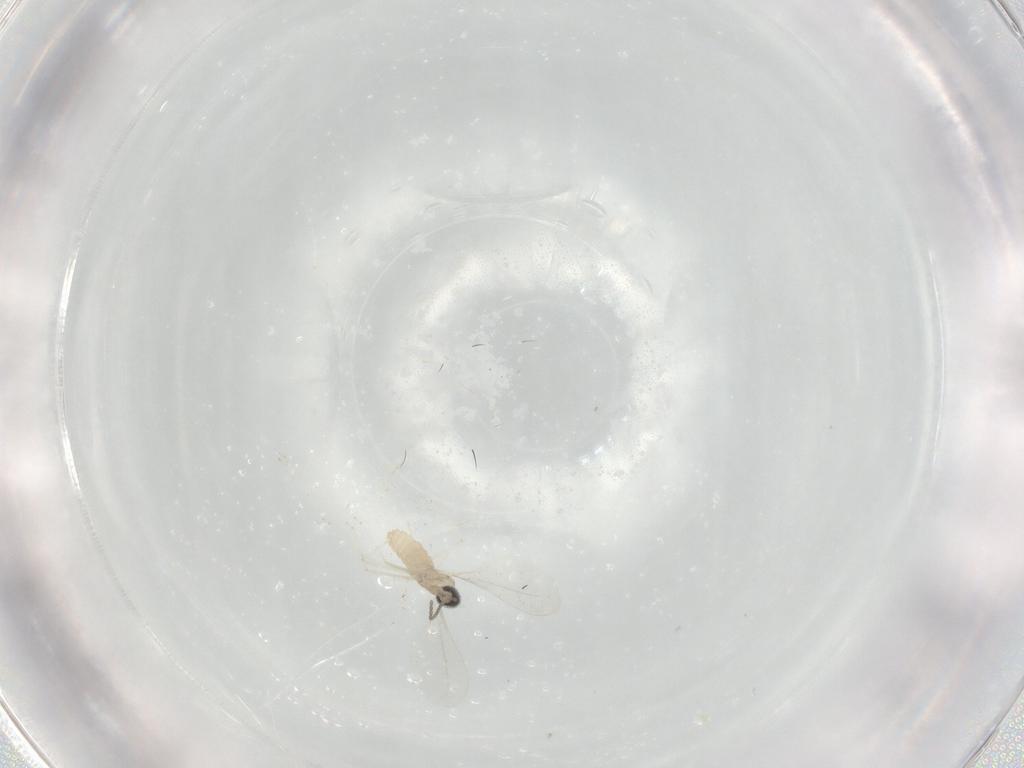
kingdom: Animalia
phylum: Arthropoda
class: Insecta
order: Diptera
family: Cecidomyiidae
